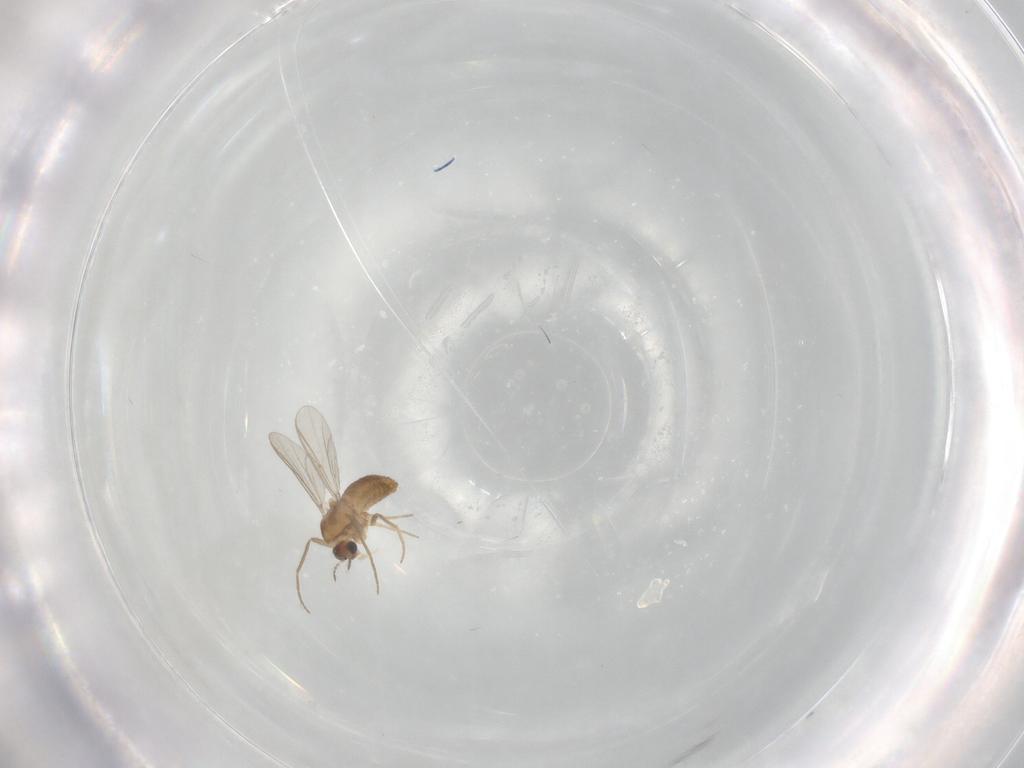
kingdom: Animalia
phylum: Arthropoda
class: Insecta
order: Diptera
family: Chironomidae
